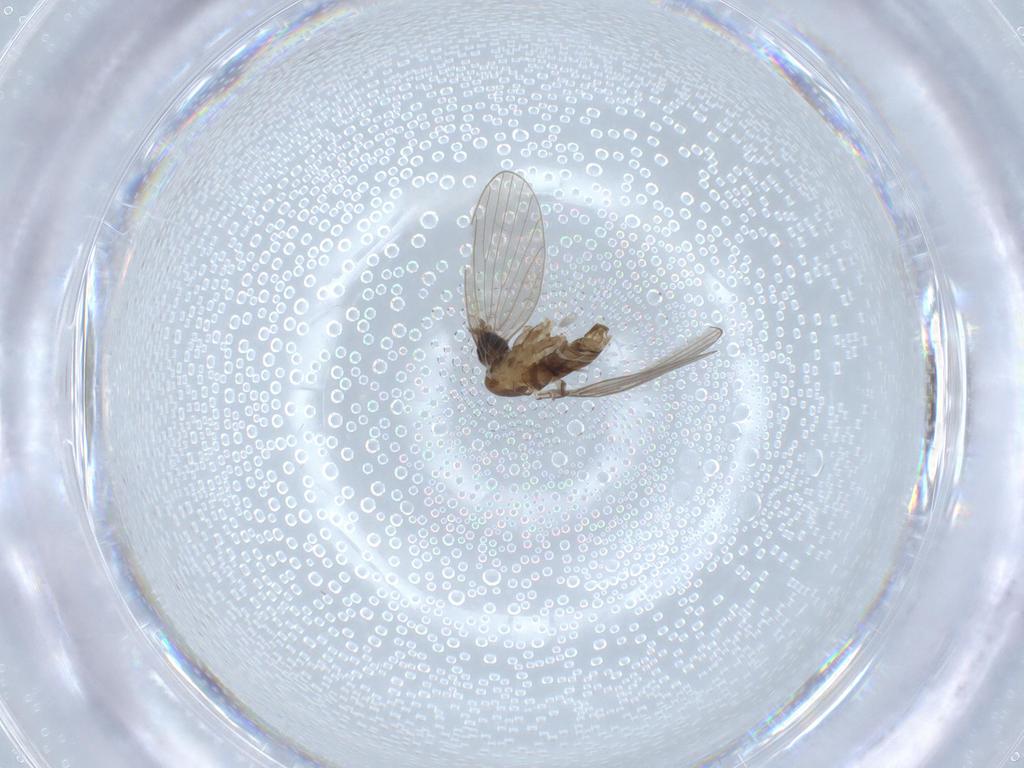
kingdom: Animalia
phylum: Arthropoda
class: Insecta
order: Diptera
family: Psychodidae
